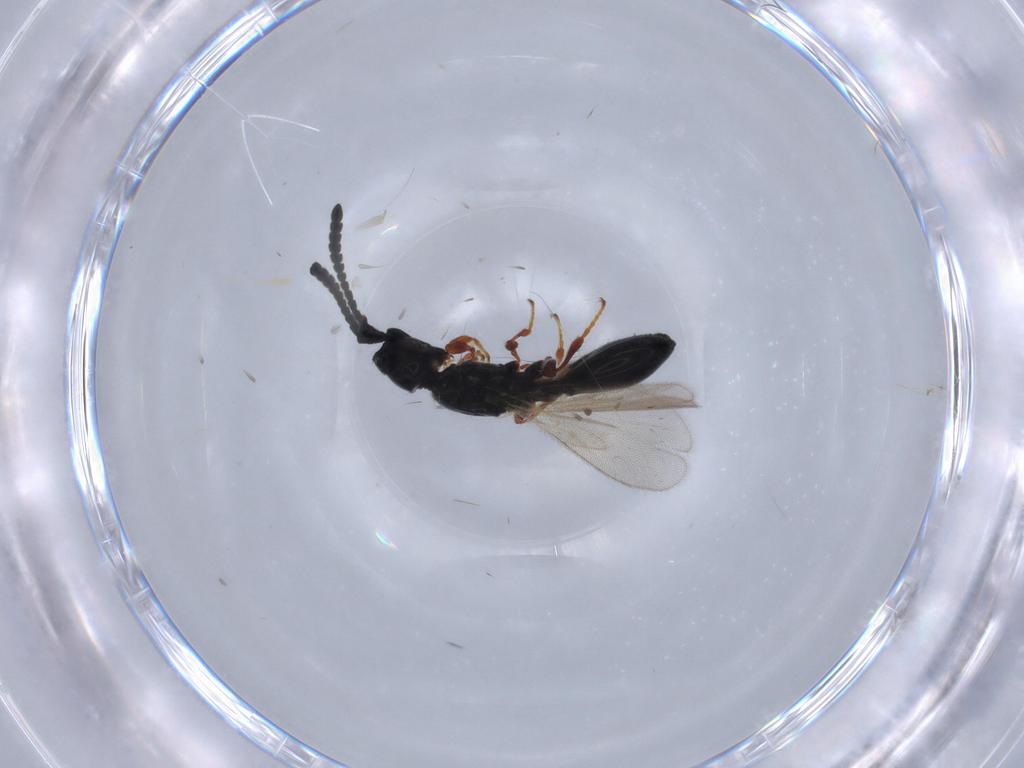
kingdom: Animalia
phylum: Arthropoda
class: Insecta
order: Hymenoptera
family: Diapriidae
